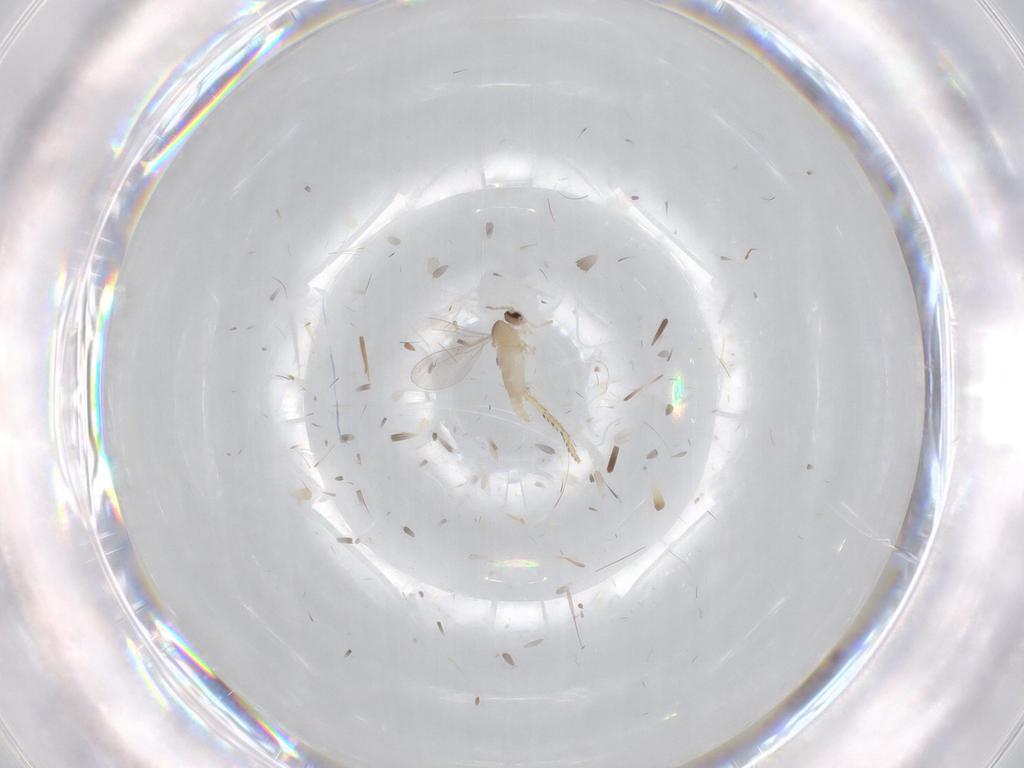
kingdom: Animalia
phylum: Arthropoda
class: Insecta
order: Diptera
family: Cecidomyiidae
